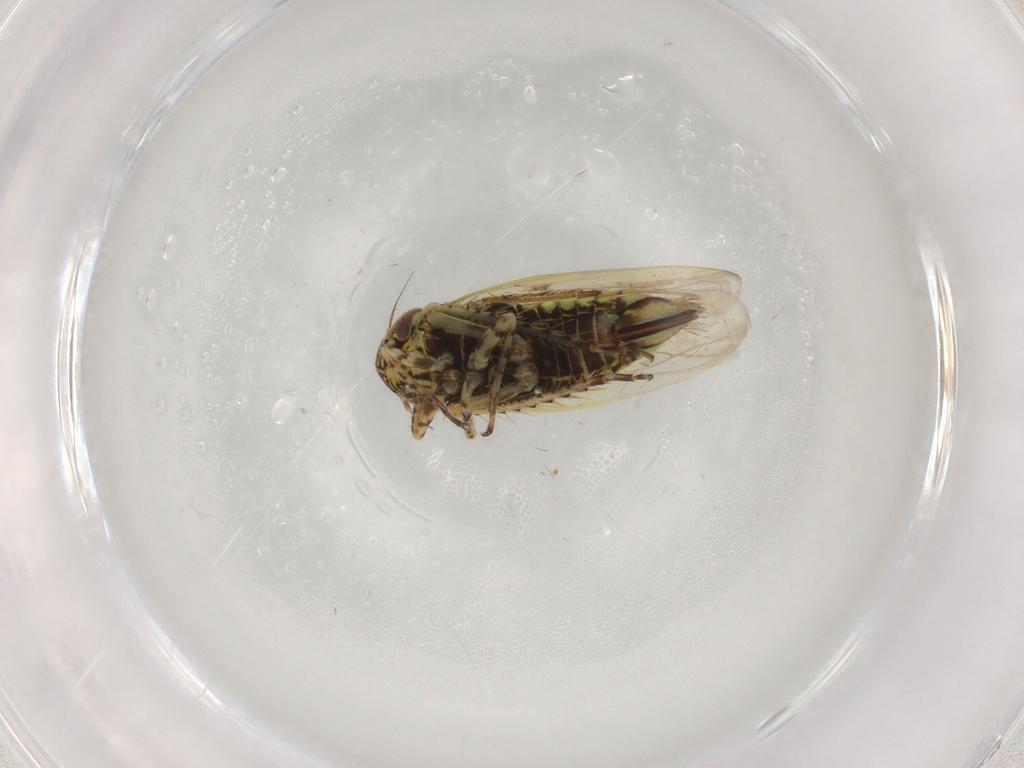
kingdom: Animalia
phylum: Arthropoda
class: Insecta
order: Hemiptera
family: Cicadellidae
